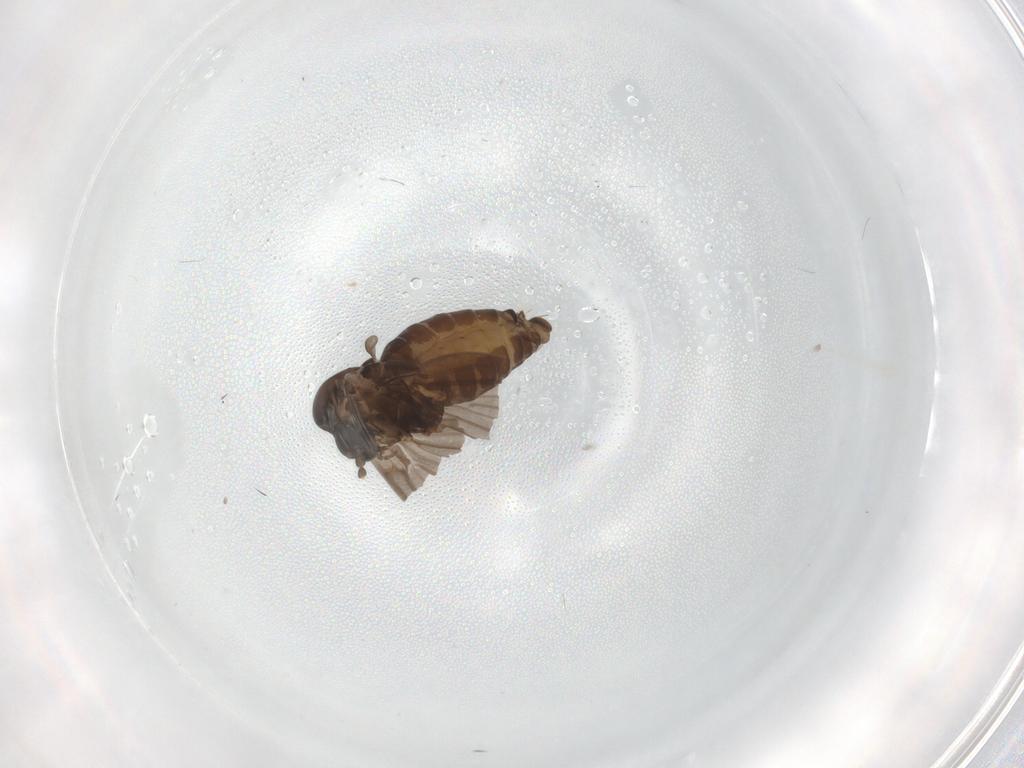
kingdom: Animalia
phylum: Arthropoda
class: Insecta
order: Diptera
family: Psychodidae
